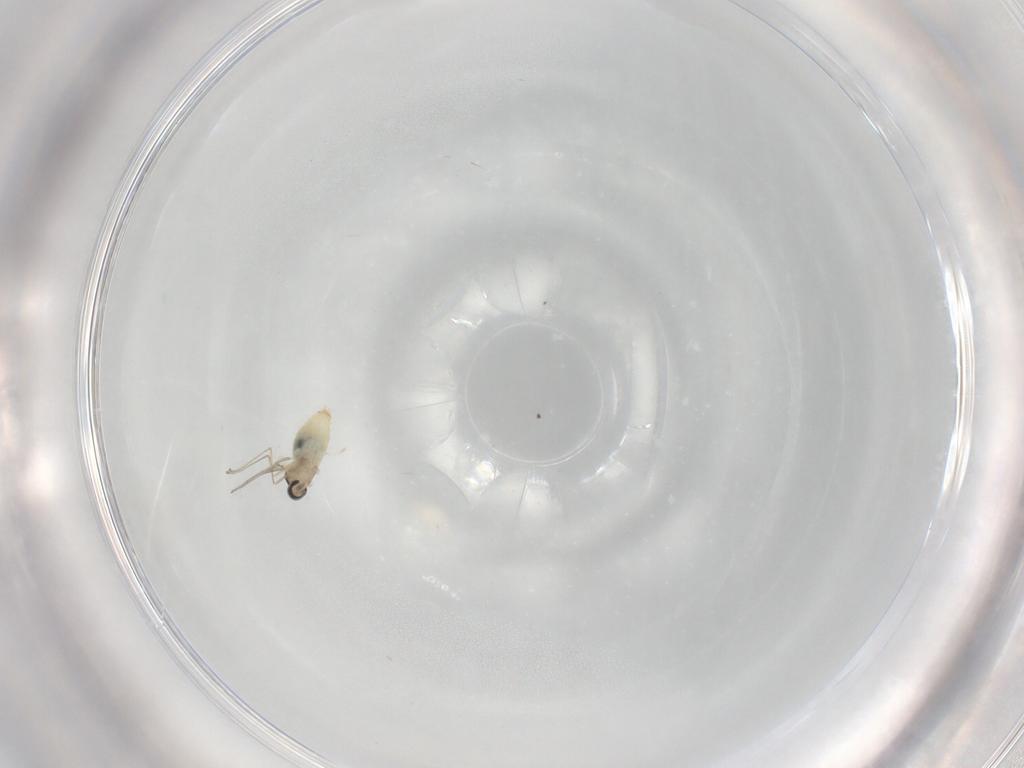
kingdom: Animalia
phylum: Arthropoda
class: Insecta
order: Diptera
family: Cecidomyiidae
